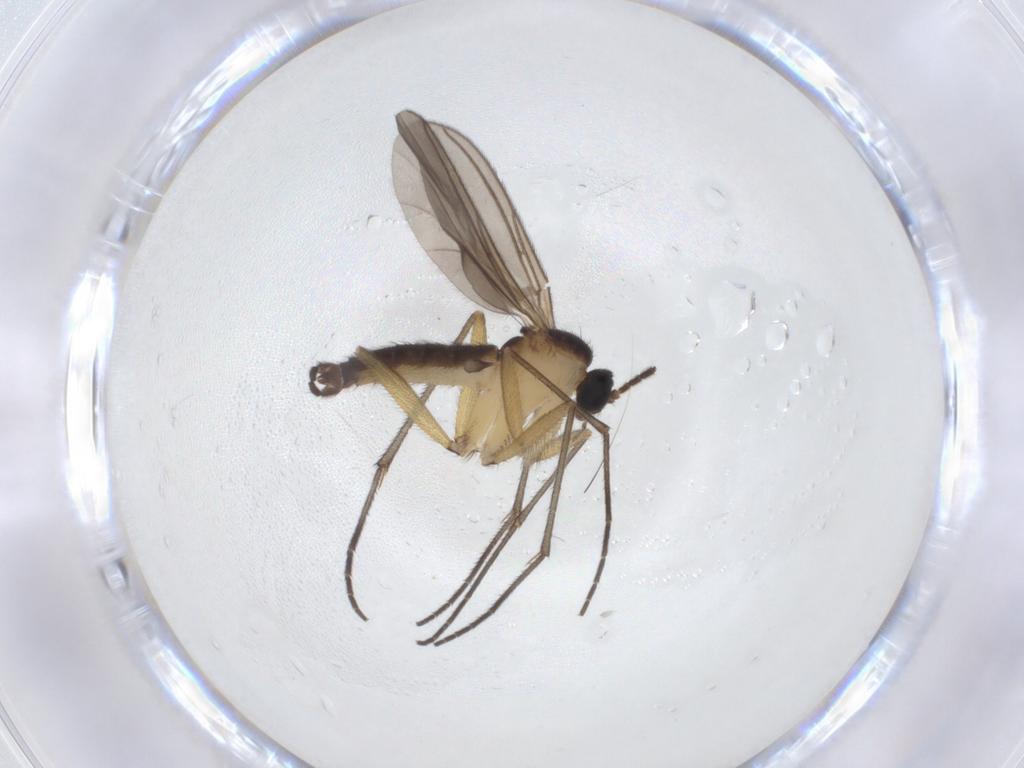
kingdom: Animalia
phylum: Arthropoda
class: Insecta
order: Diptera
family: Sciaridae
